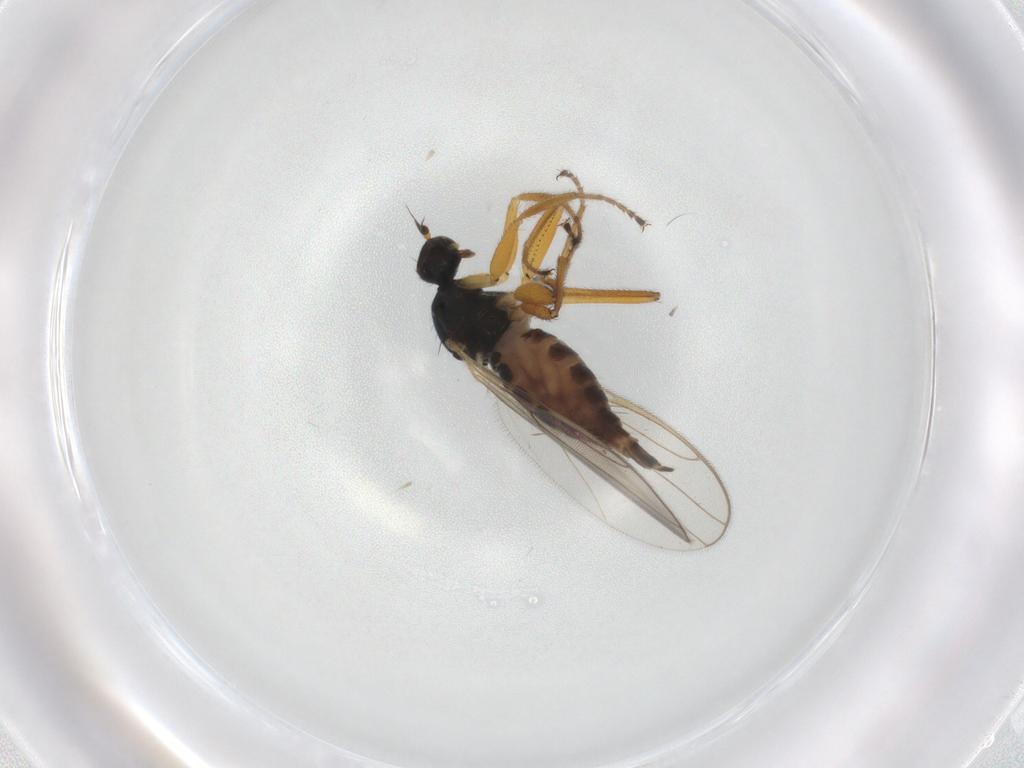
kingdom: Animalia
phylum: Arthropoda
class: Insecta
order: Diptera
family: Hybotidae
